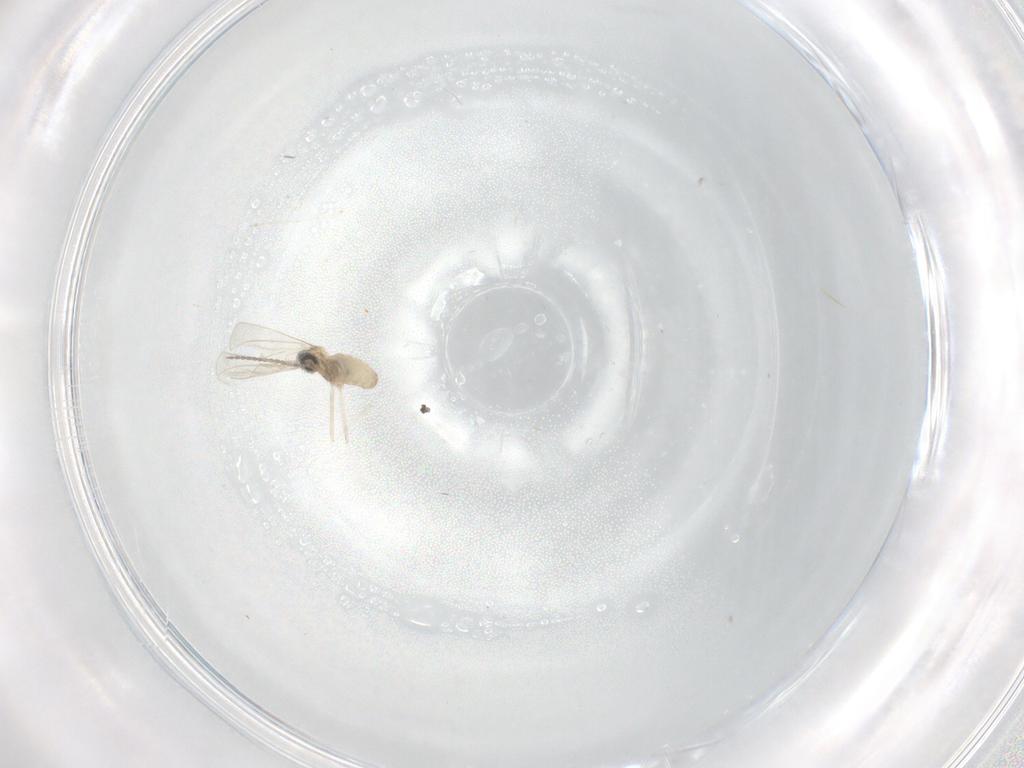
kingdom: Animalia
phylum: Arthropoda
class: Insecta
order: Diptera
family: Cecidomyiidae
